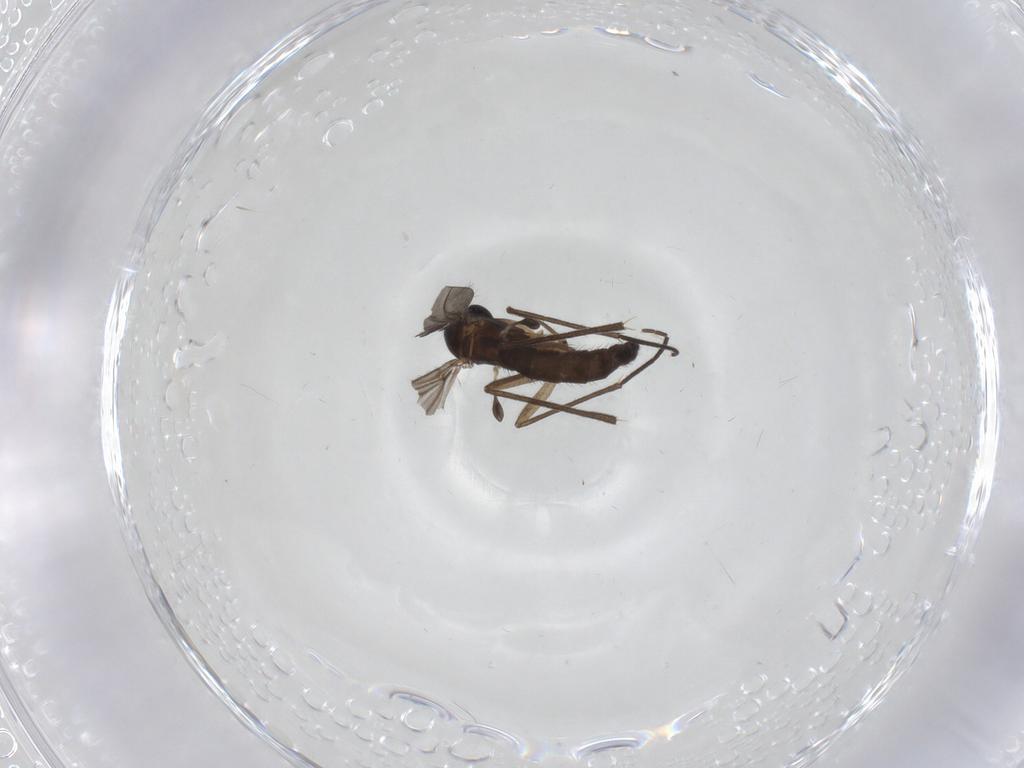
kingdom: Animalia
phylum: Arthropoda
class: Insecta
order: Diptera
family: Sciaridae
